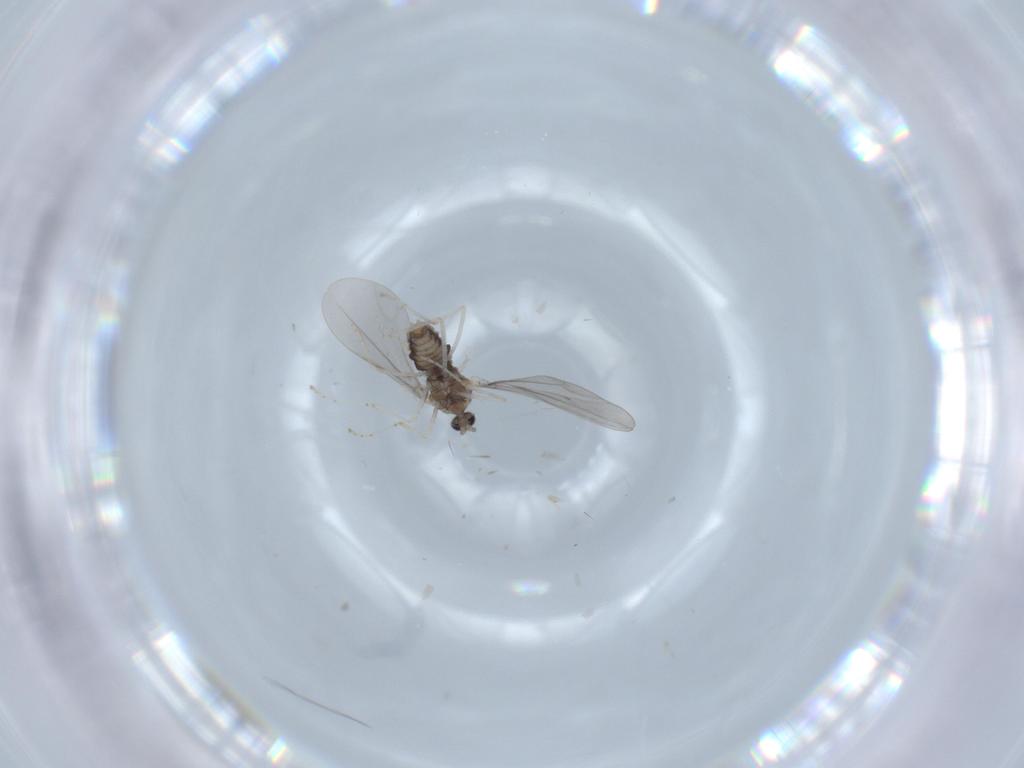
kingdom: Animalia
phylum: Arthropoda
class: Insecta
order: Diptera
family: Cecidomyiidae
